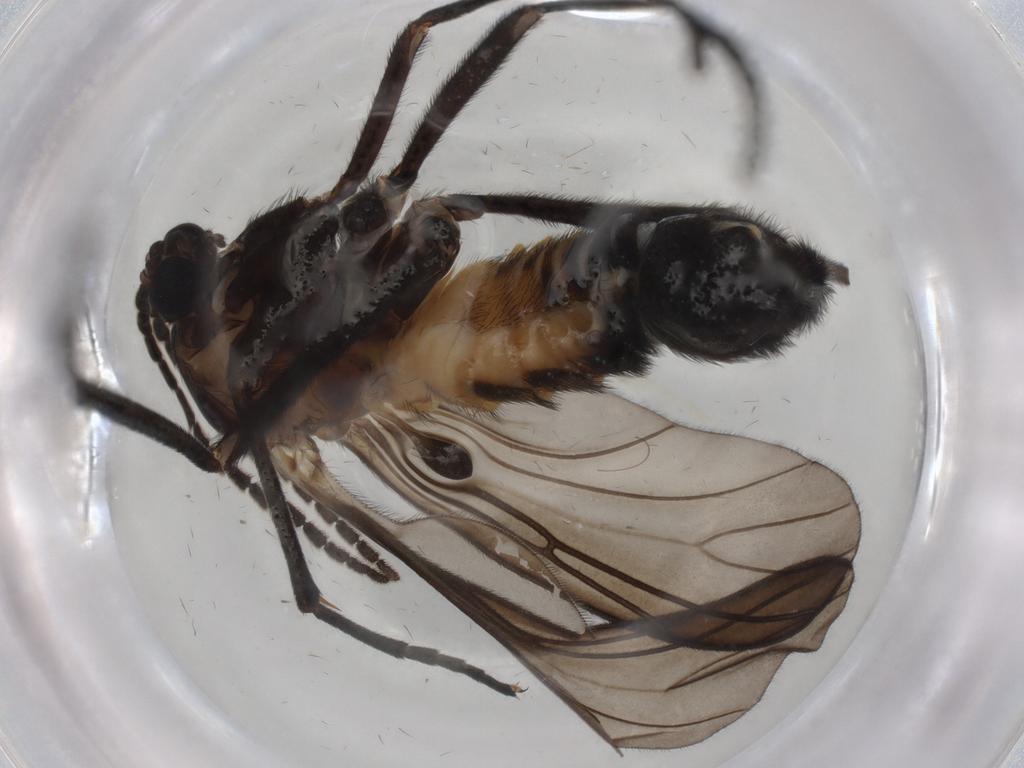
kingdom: Animalia
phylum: Arthropoda
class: Insecta
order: Diptera
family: Sciaridae
